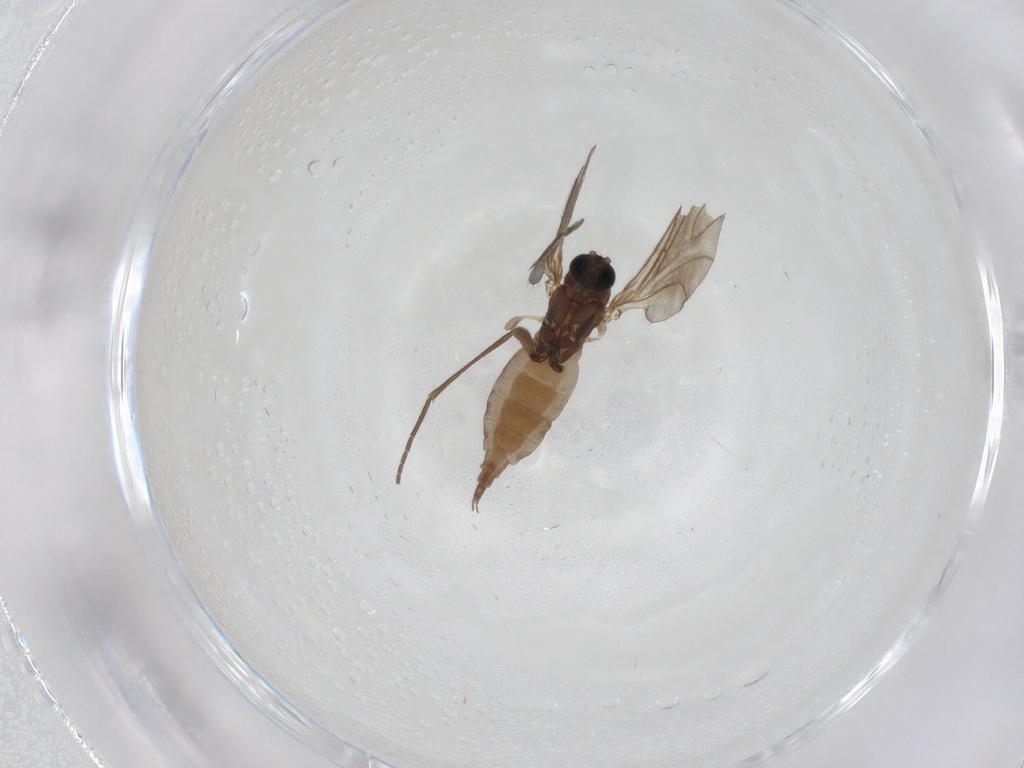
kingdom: Animalia
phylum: Arthropoda
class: Insecta
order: Diptera
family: Sciaridae
